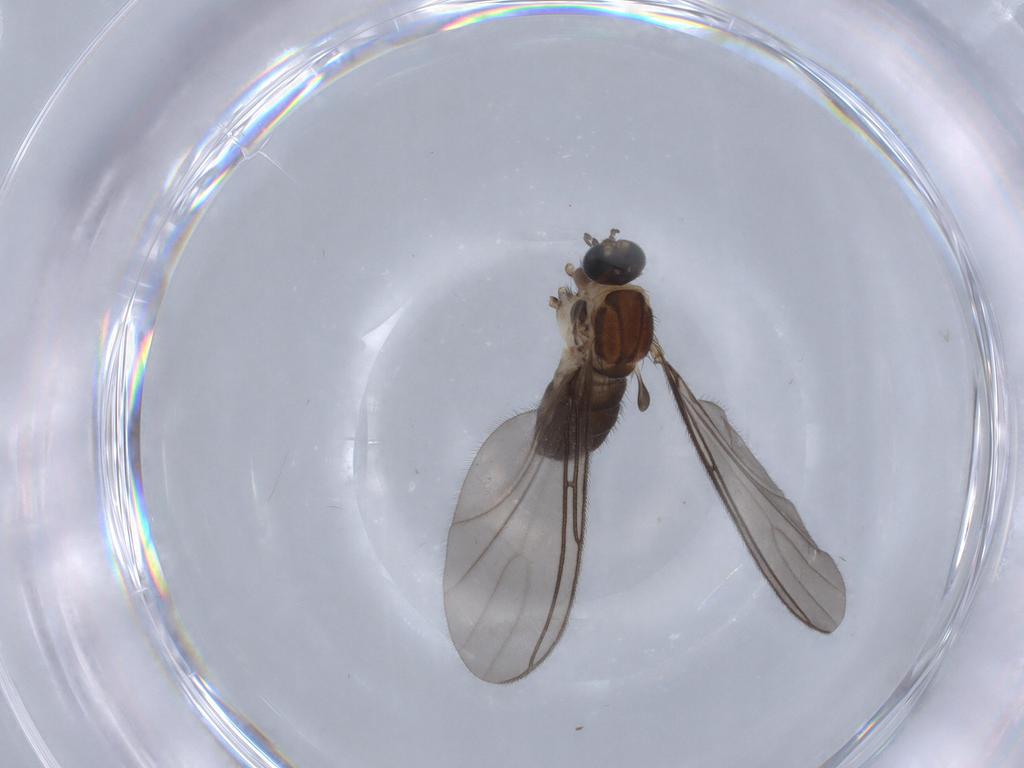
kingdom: Animalia
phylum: Arthropoda
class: Insecta
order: Diptera
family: Sciaridae
